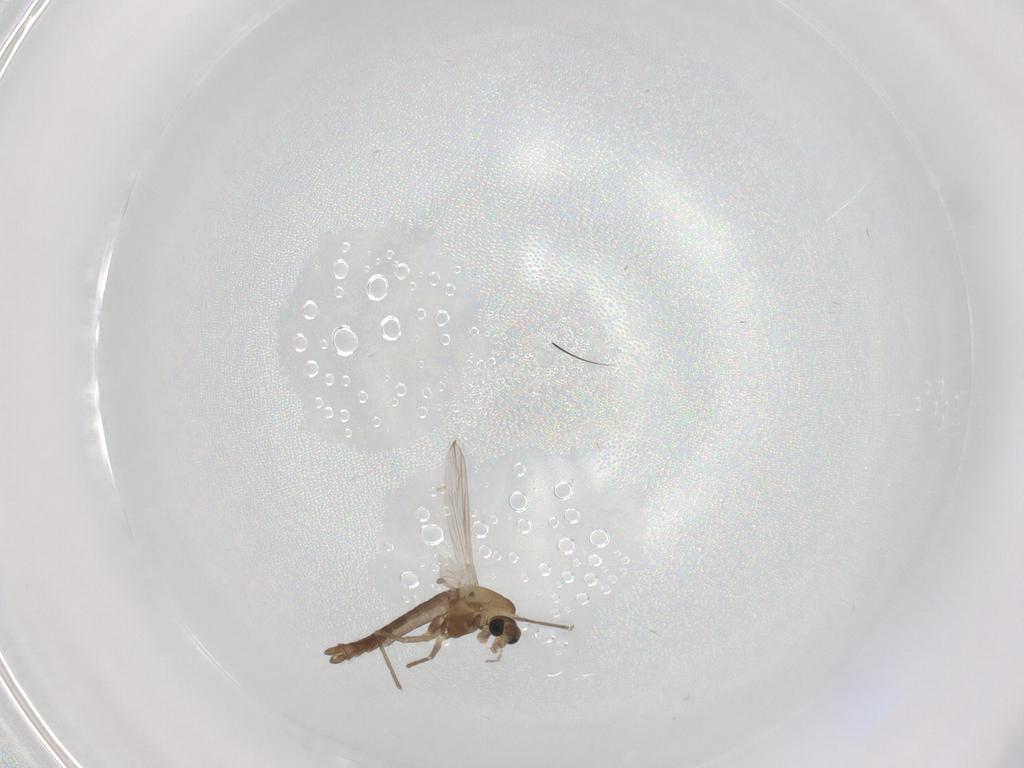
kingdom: Animalia
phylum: Arthropoda
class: Insecta
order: Diptera
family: Chironomidae
